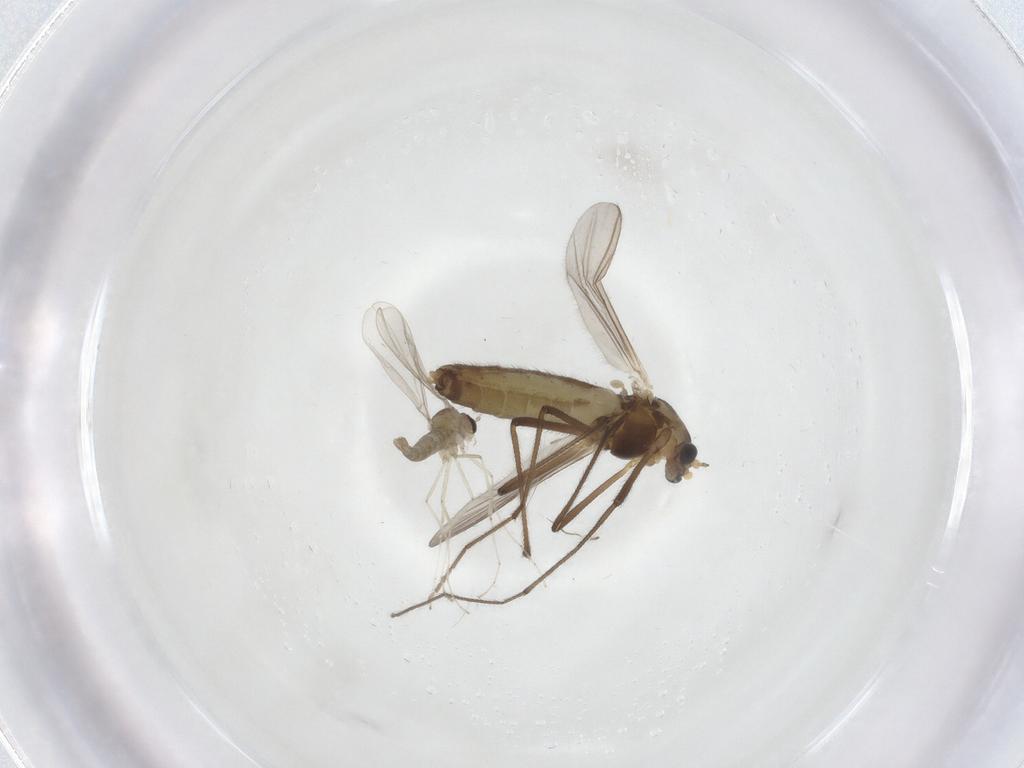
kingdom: Animalia
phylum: Arthropoda
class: Insecta
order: Diptera
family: Chironomidae
